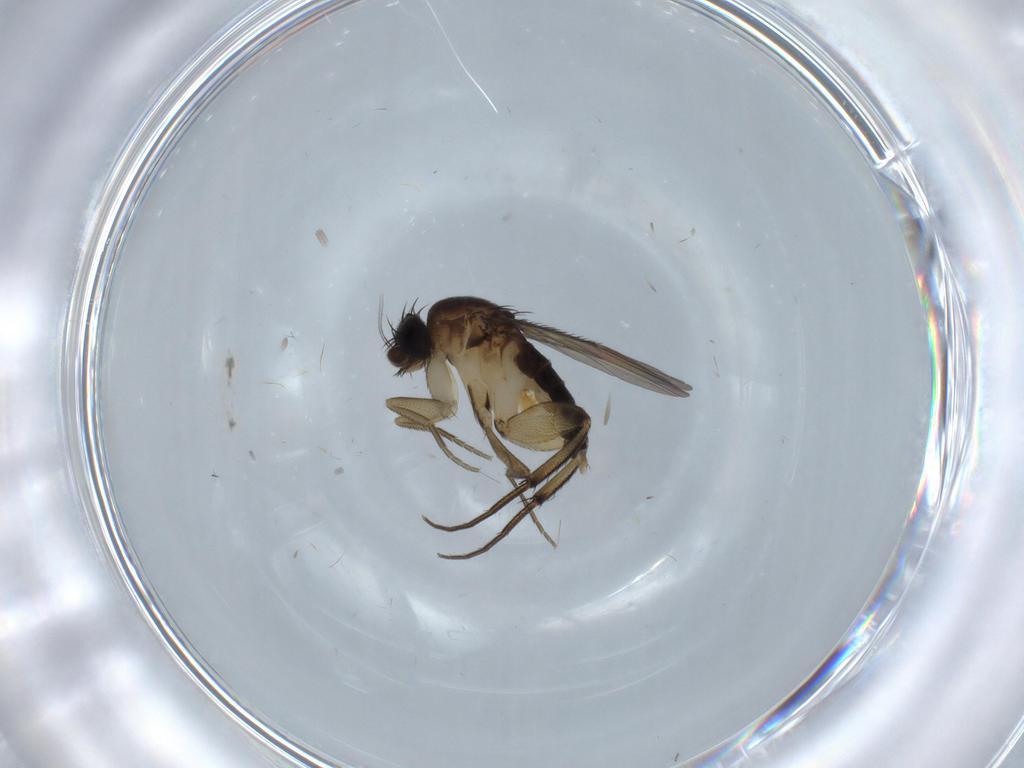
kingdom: Animalia
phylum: Arthropoda
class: Insecta
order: Diptera
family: Phoridae
